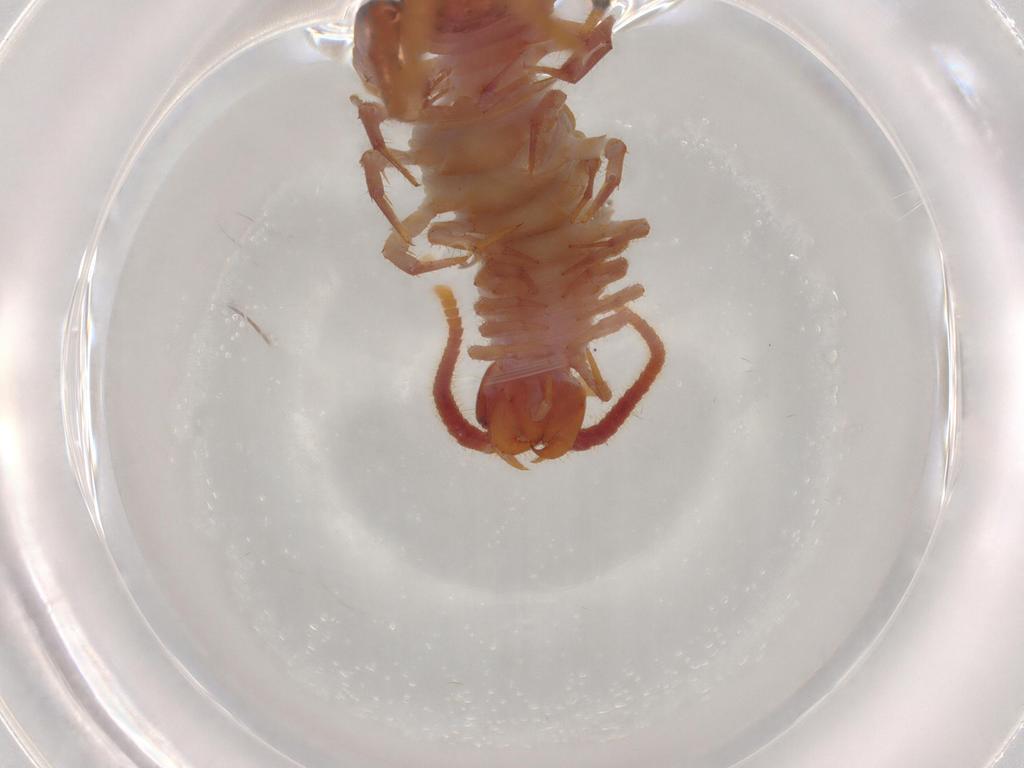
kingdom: Animalia
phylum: Arthropoda
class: Chilopoda
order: Lithobiomorpha
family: Lithobiidae
